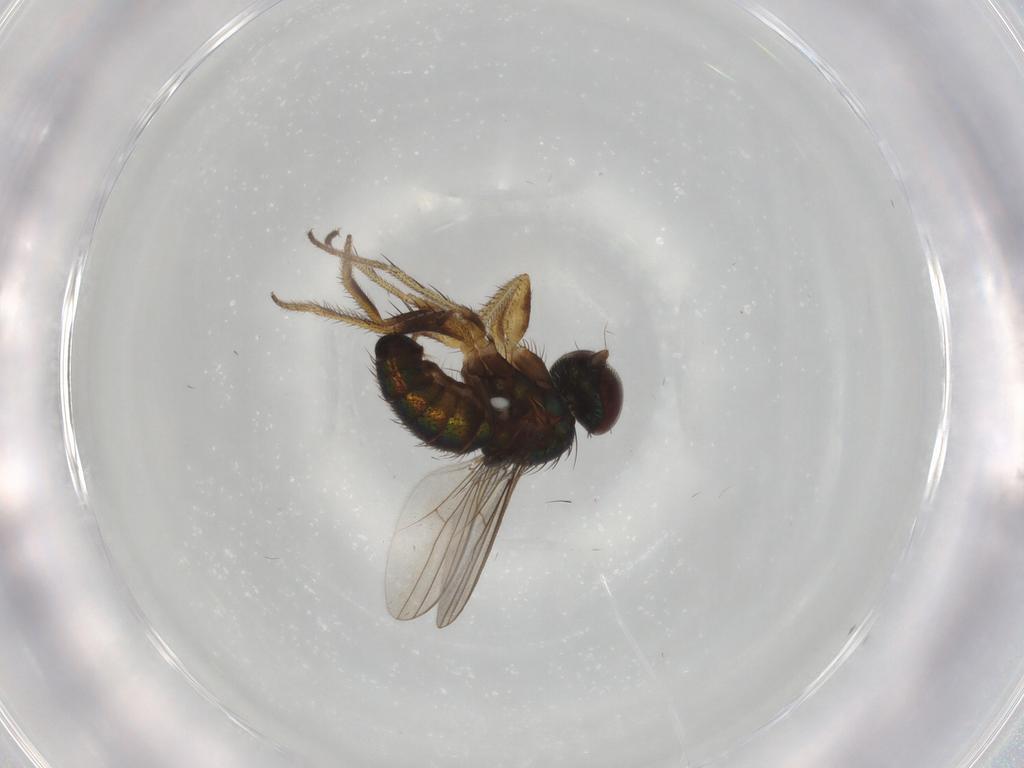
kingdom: Animalia
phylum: Arthropoda
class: Insecta
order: Diptera
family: Dolichopodidae
